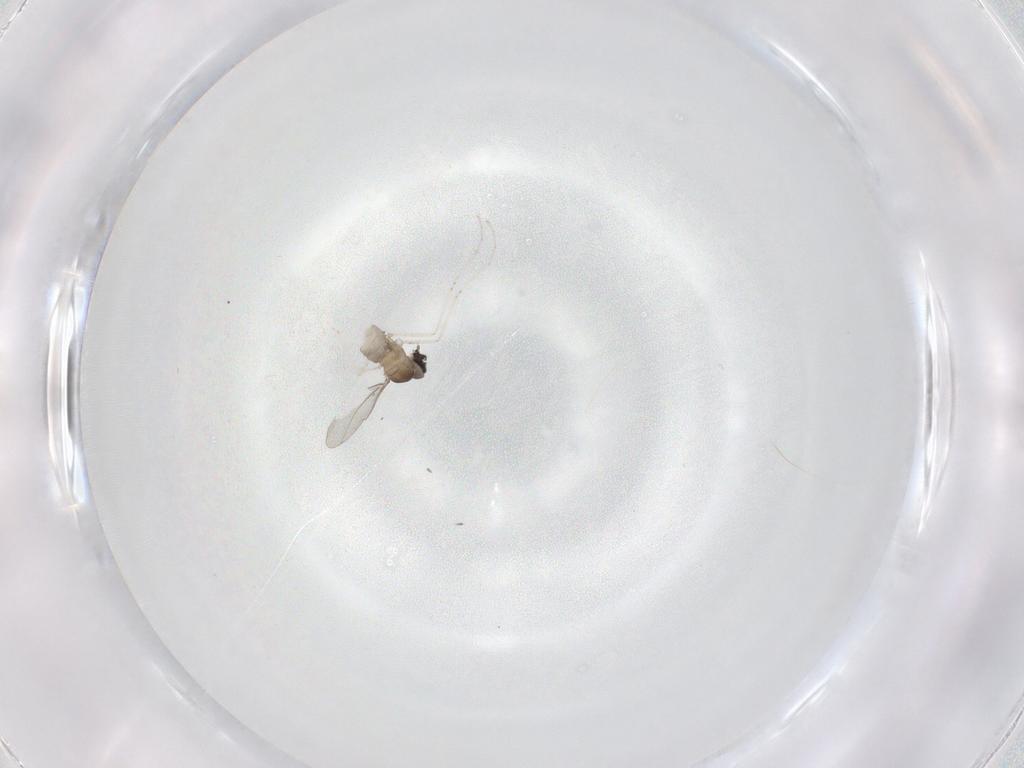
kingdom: Animalia
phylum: Arthropoda
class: Insecta
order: Diptera
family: Cecidomyiidae
